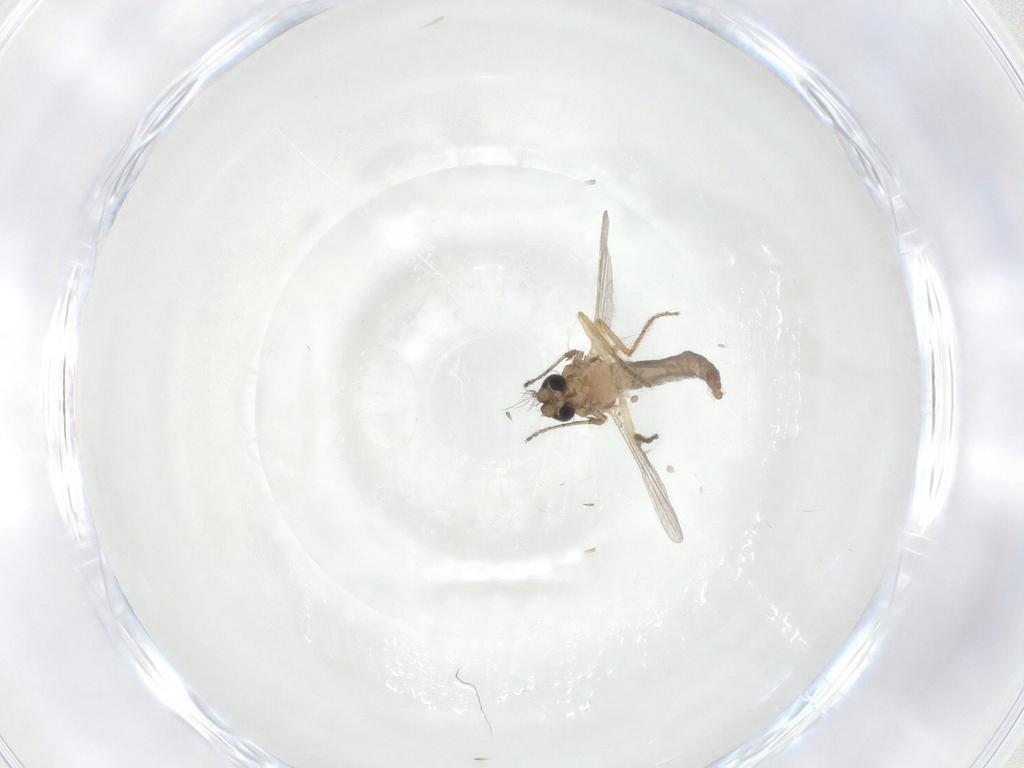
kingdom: Animalia
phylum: Arthropoda
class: Insecta
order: Diptera
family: Ceratopogonidae
